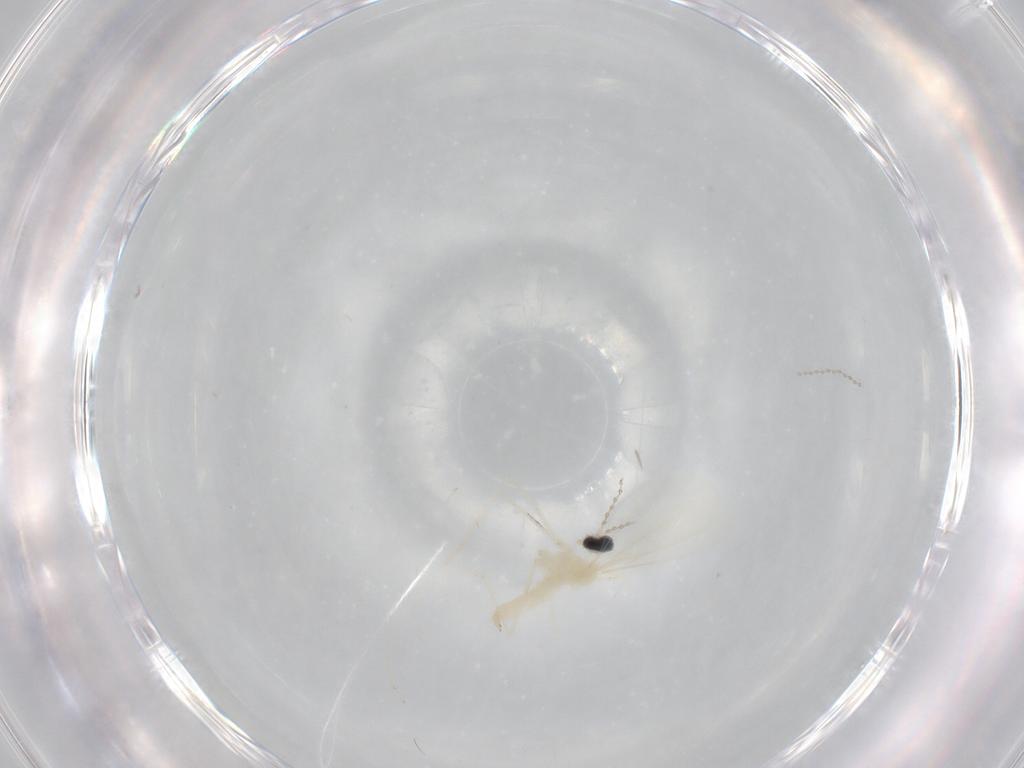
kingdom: Animalia
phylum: Arthropoda
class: Insecta
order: Diptera
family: Cecidomyiidae
